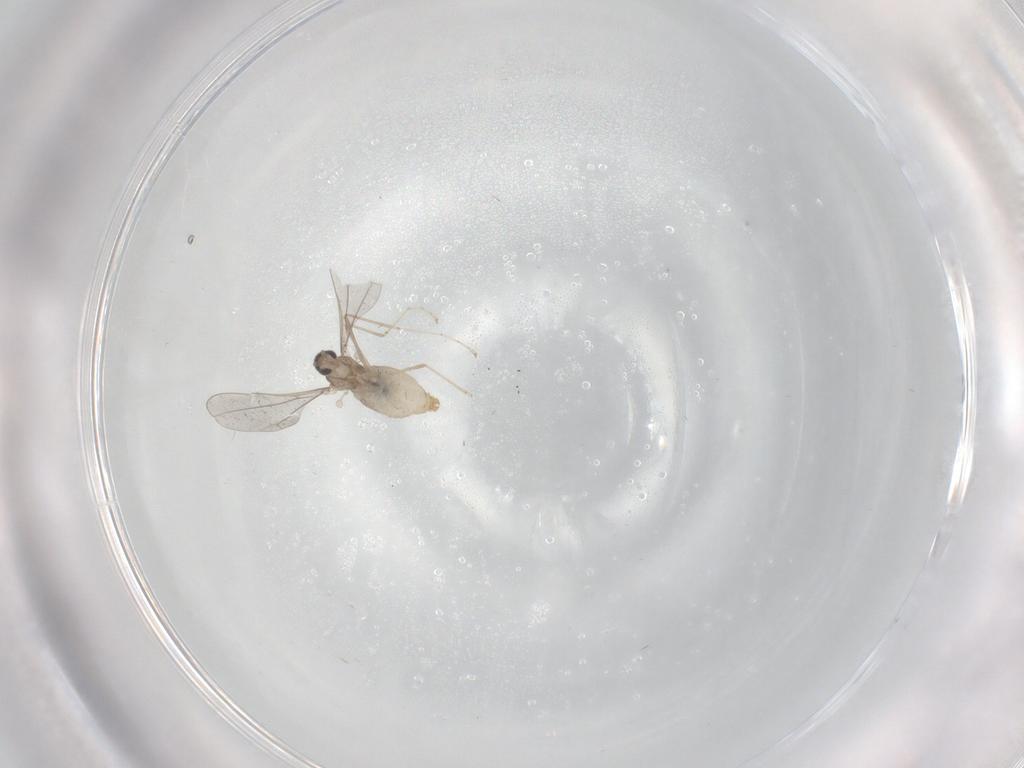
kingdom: Animalia
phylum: Arthropoda
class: Insecta
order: Diptera
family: Cecidomyiidae
